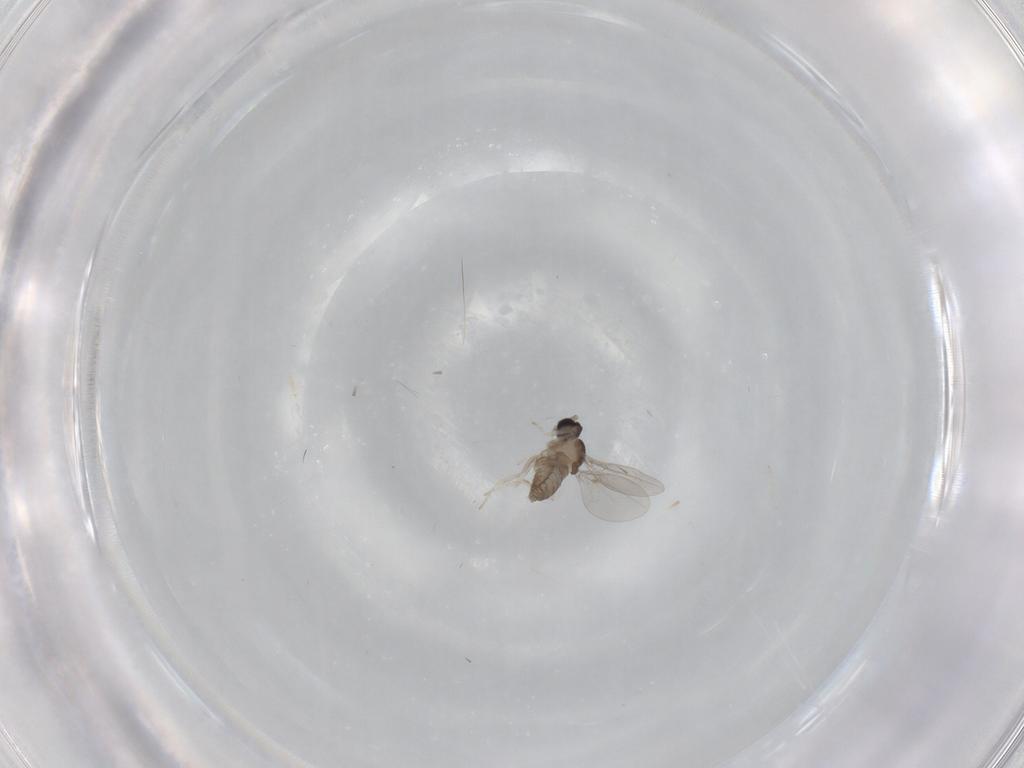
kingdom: Animalia
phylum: Arthropoda
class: Insecta
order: Diptera
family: Cecidomyiidae
